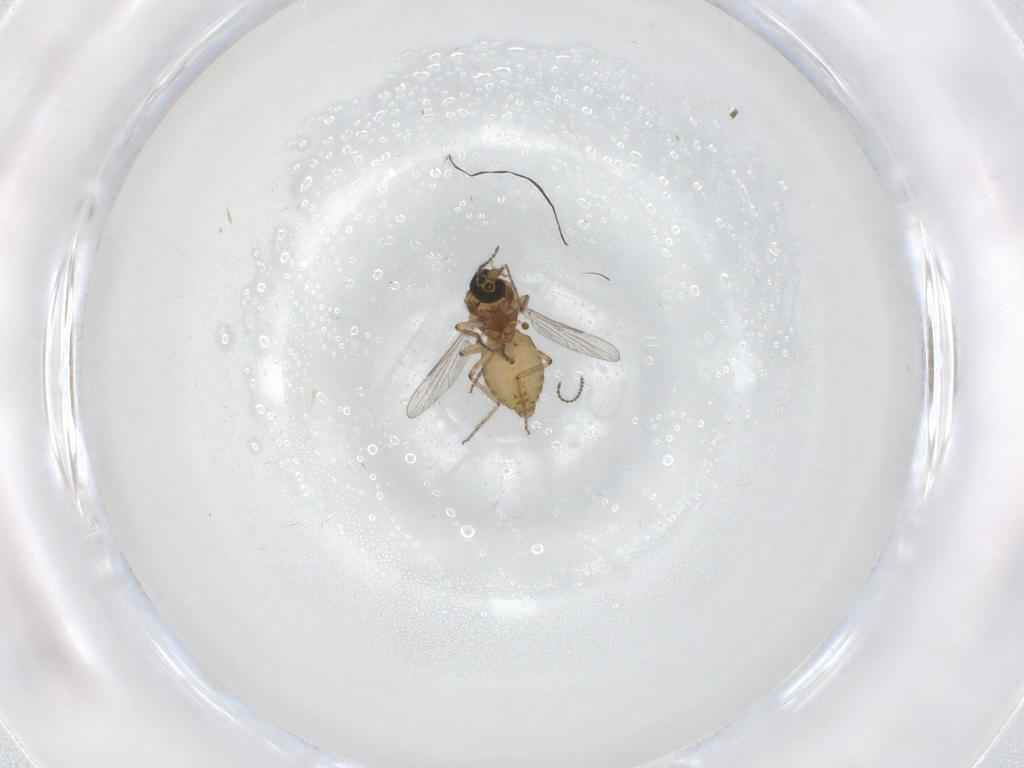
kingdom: Animalia
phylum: Arthropoda
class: Insecta
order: Diptera
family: Ceratopogonidae
